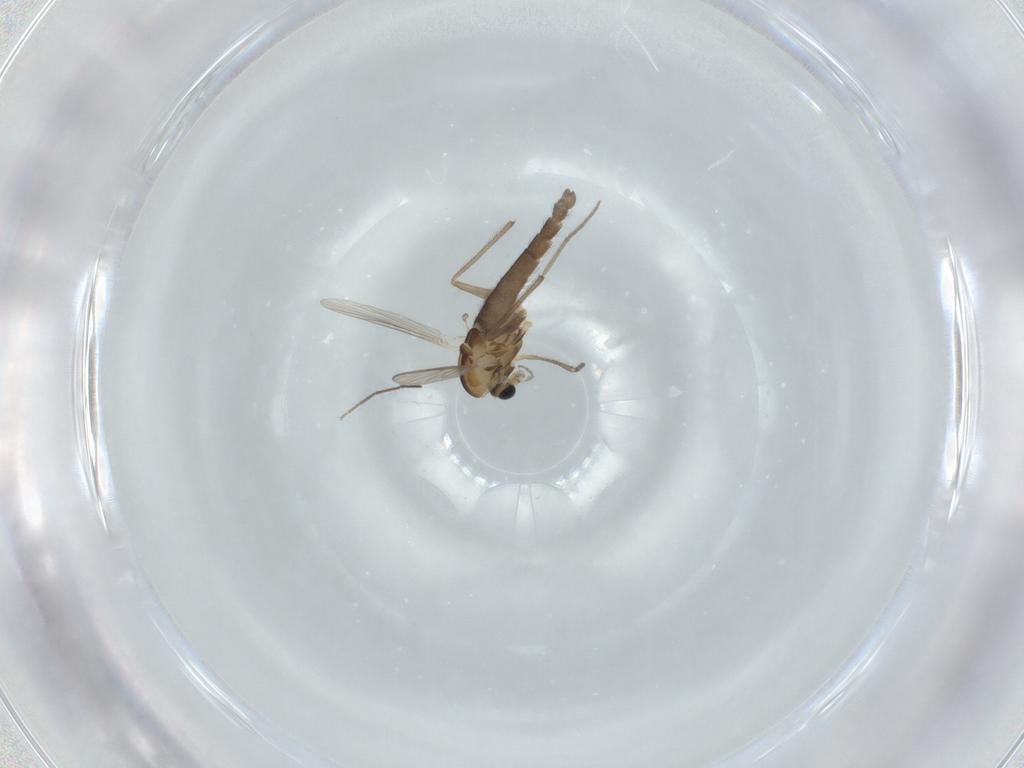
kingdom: Animalia
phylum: Arthropoda
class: Insecta
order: Diptera
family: Chironomidae
